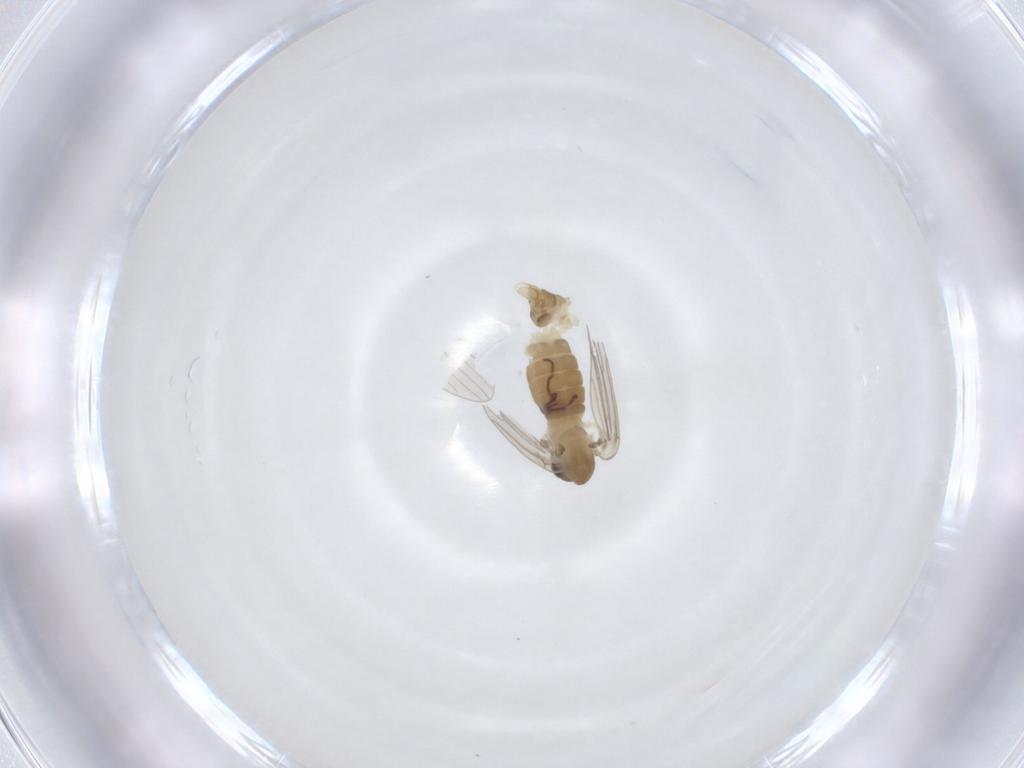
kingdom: Animalia
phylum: Arthropoda
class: Insecta
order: Diptera
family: Psychodidae
